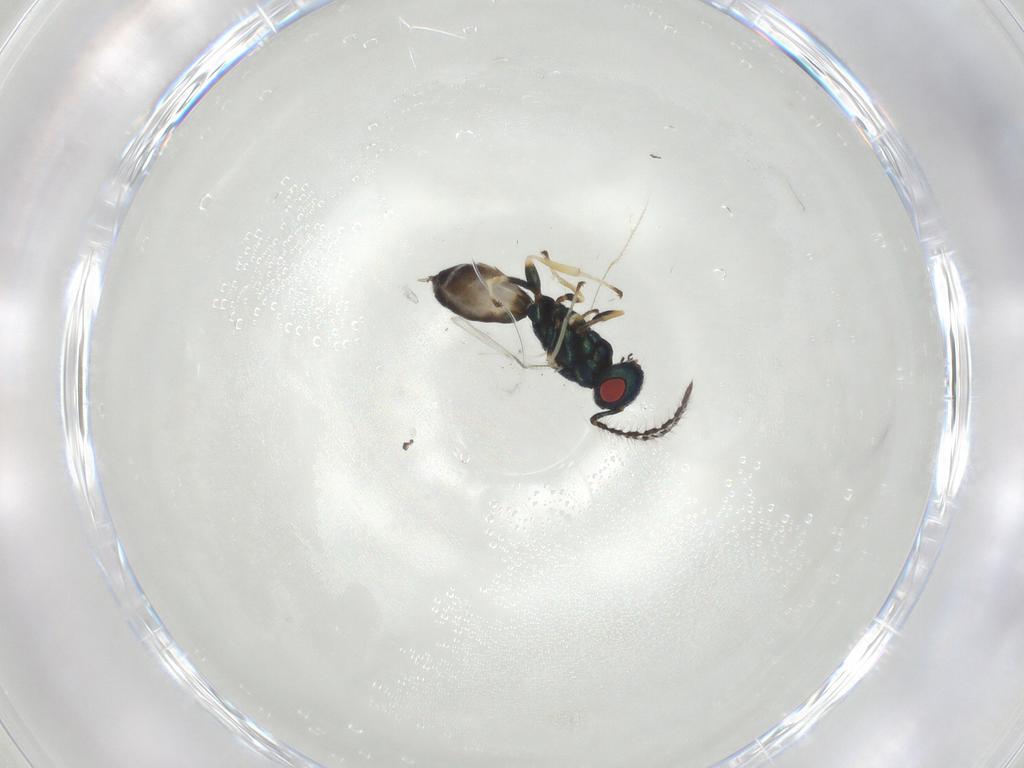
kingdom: Animalia
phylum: Arthropoda
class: Insecta
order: Hymenoptera
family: Pteromalidae
